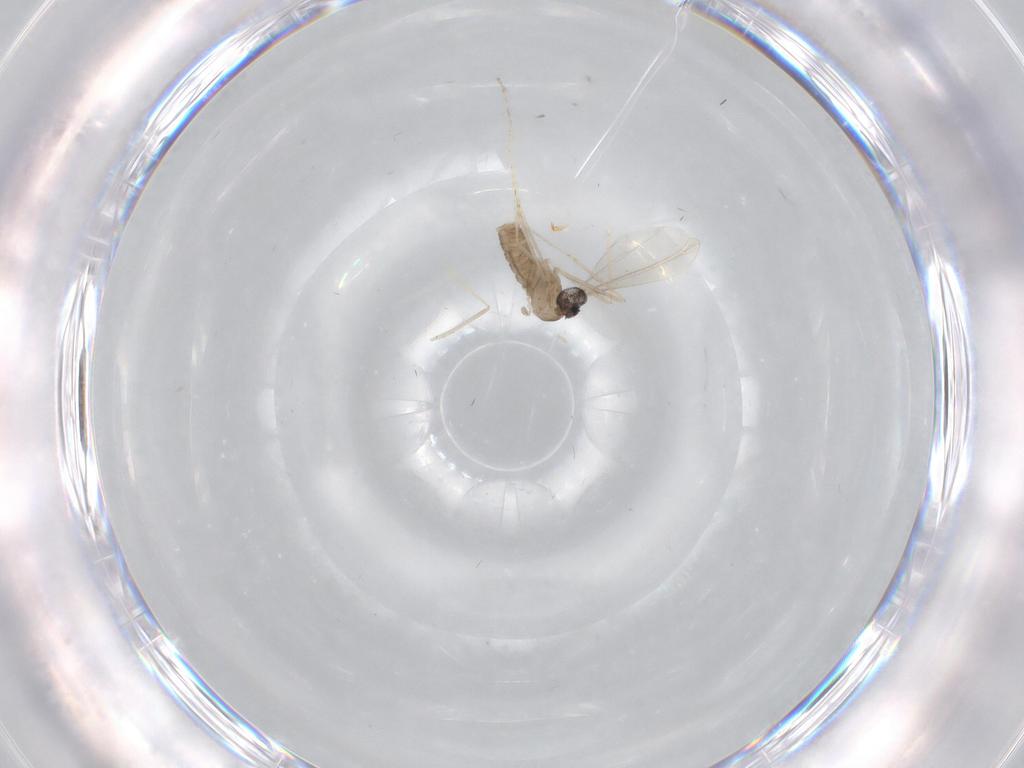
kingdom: Animalia
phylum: Arthropoda
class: Insecta
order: Diptera
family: Cecidomyiidae
